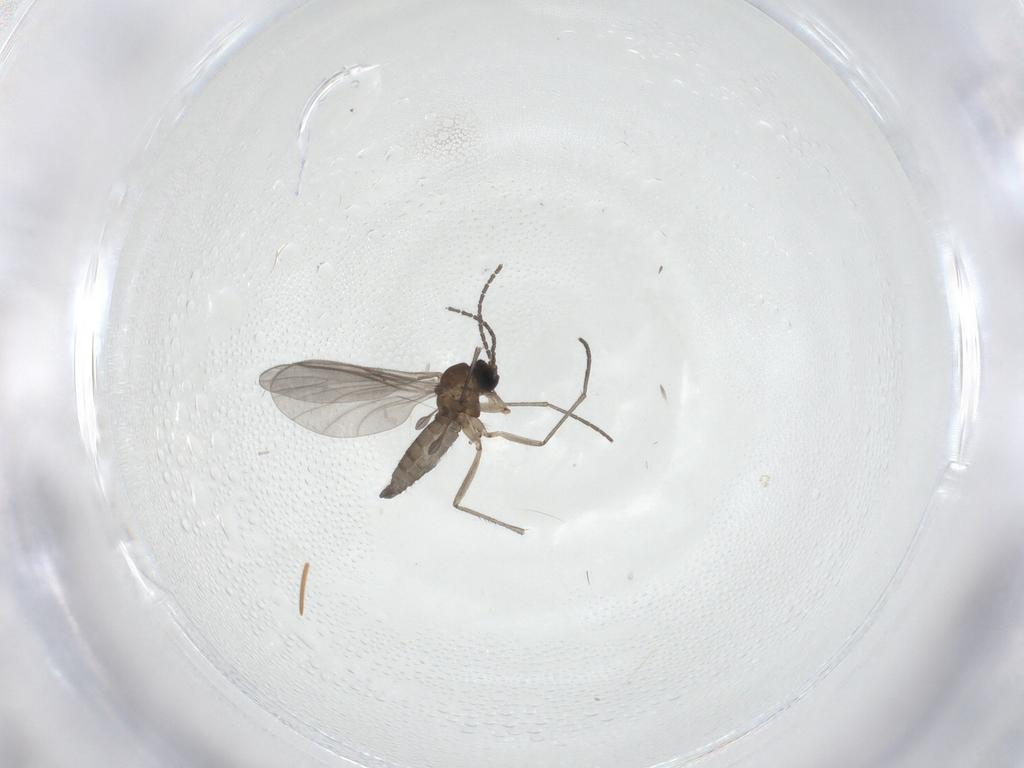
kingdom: Animalia
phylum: Arthropoda
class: Insecta
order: Diptera
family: Sciaridae
